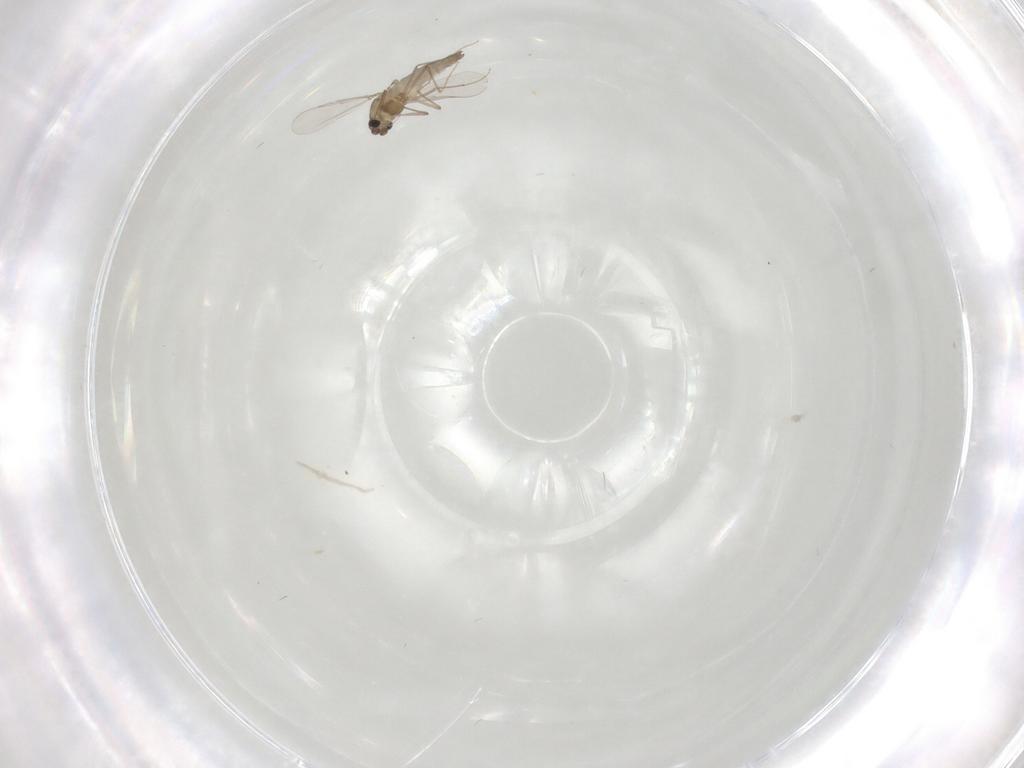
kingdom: Animalia
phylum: Arthropoda
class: Insecta
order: Diptera
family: Chironomidae
